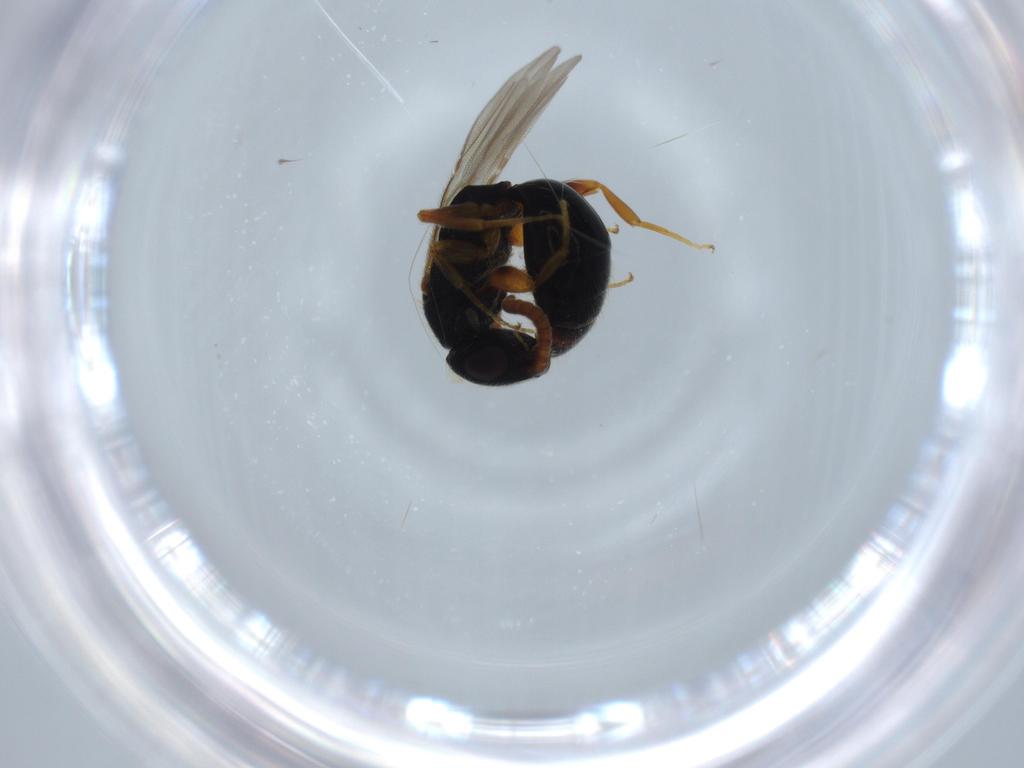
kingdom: Animalia
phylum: Arthropoda
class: Insecta
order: Hymenoptera
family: Bethylidae
